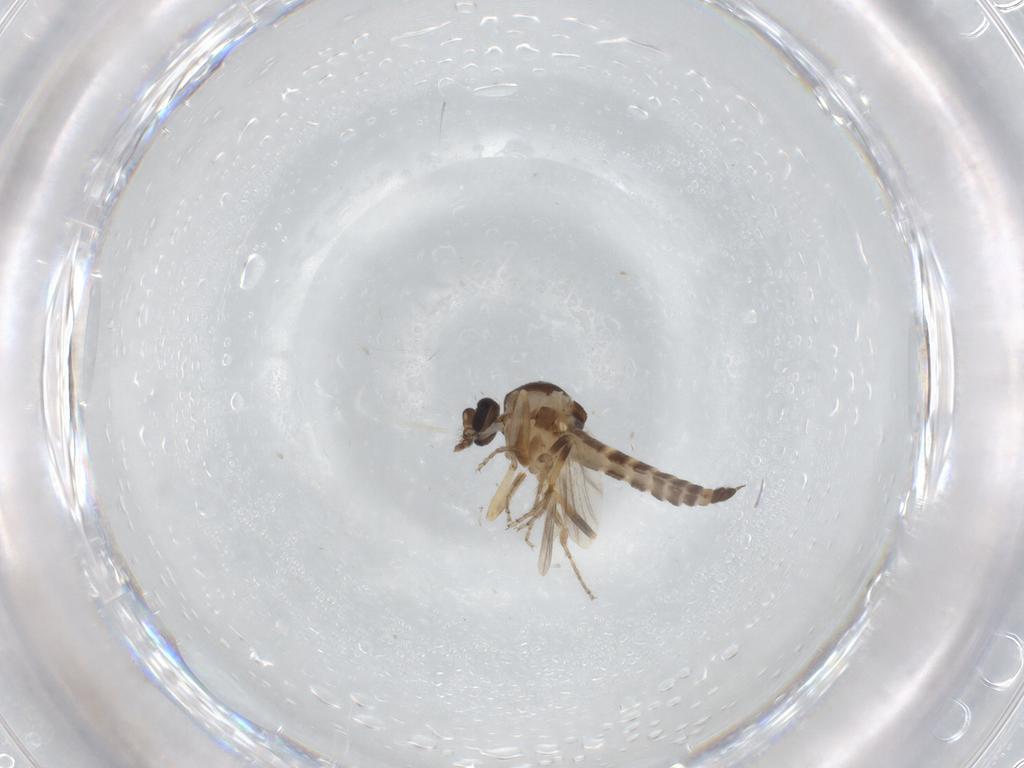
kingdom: Animalia
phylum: Arthropoda
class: Insecta
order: Diptera
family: Ceratopogonidae
